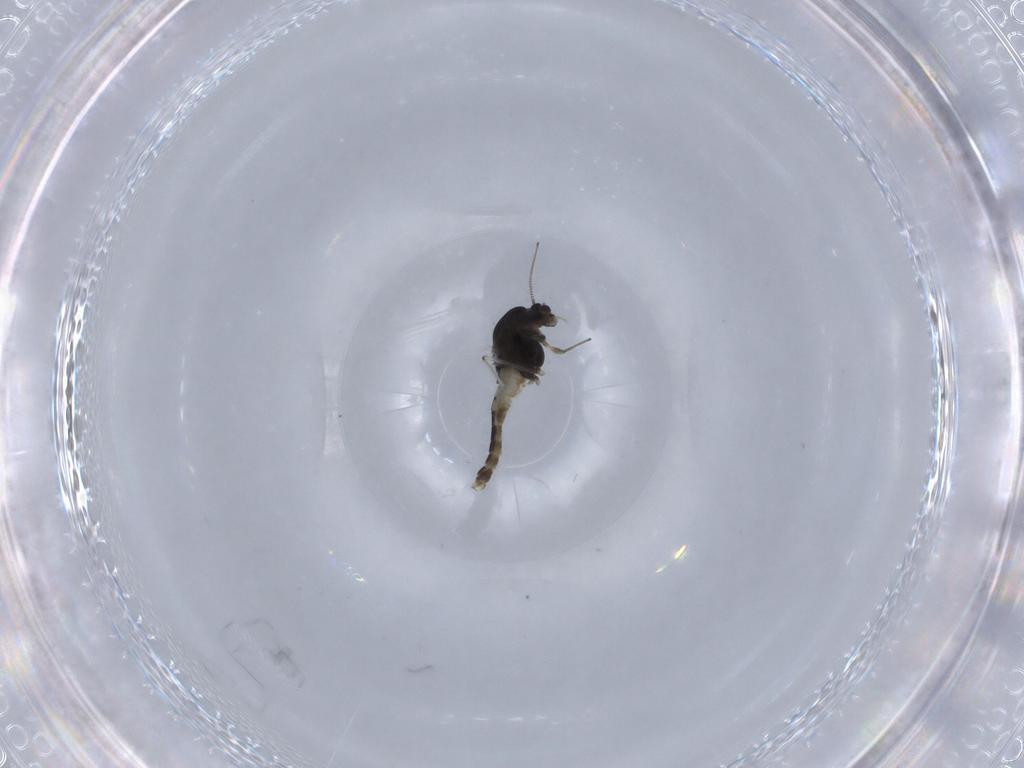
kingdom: Animalia
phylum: Arthropoda
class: Insecta
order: Diptera
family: Chironomidae
